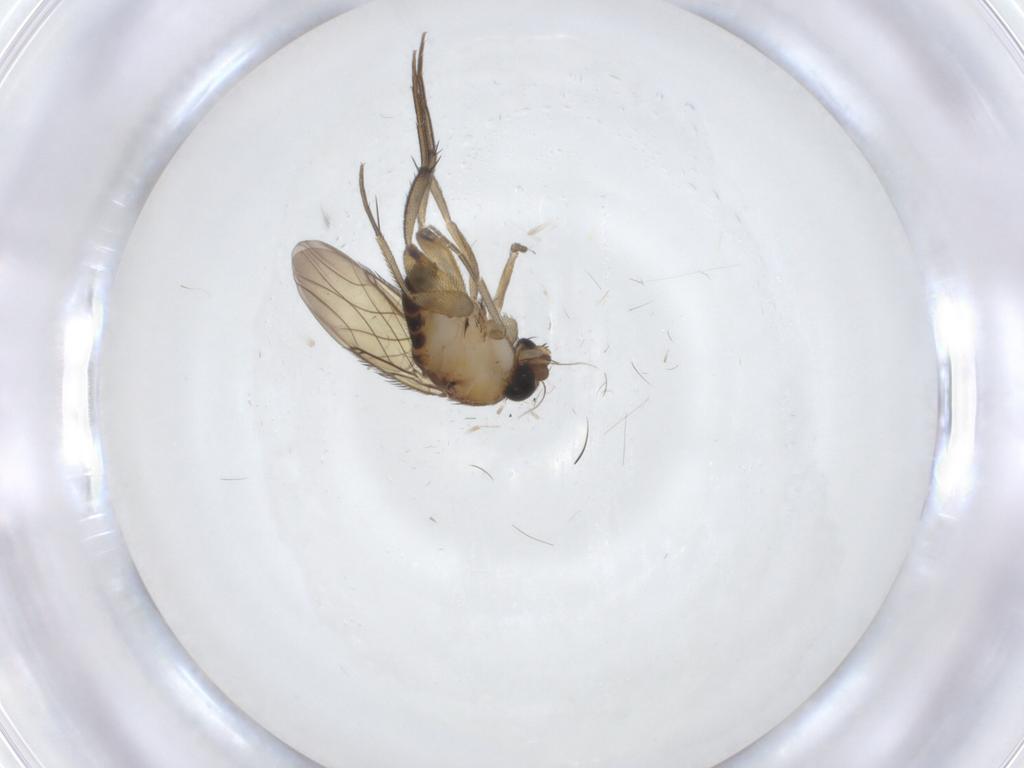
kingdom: Animalia
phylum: Arthropoda
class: Insecta
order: Diptera
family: Phoridae
